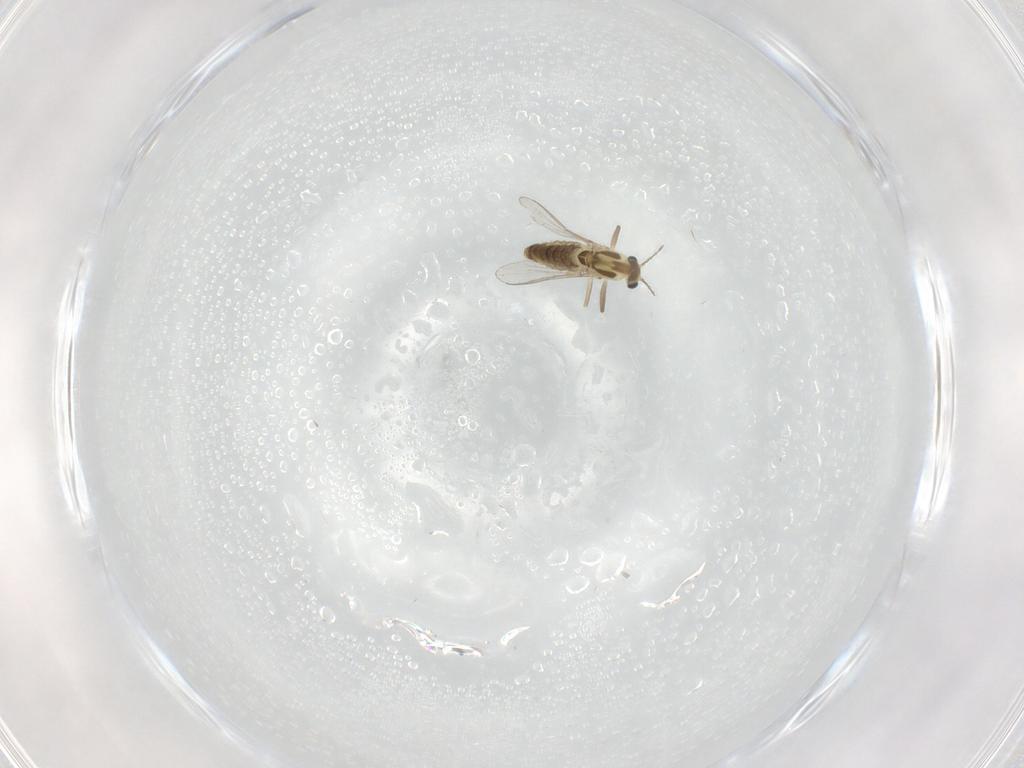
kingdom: Animalia
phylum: Arthropoda
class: Insecta
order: Diptera
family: Chironomidae
